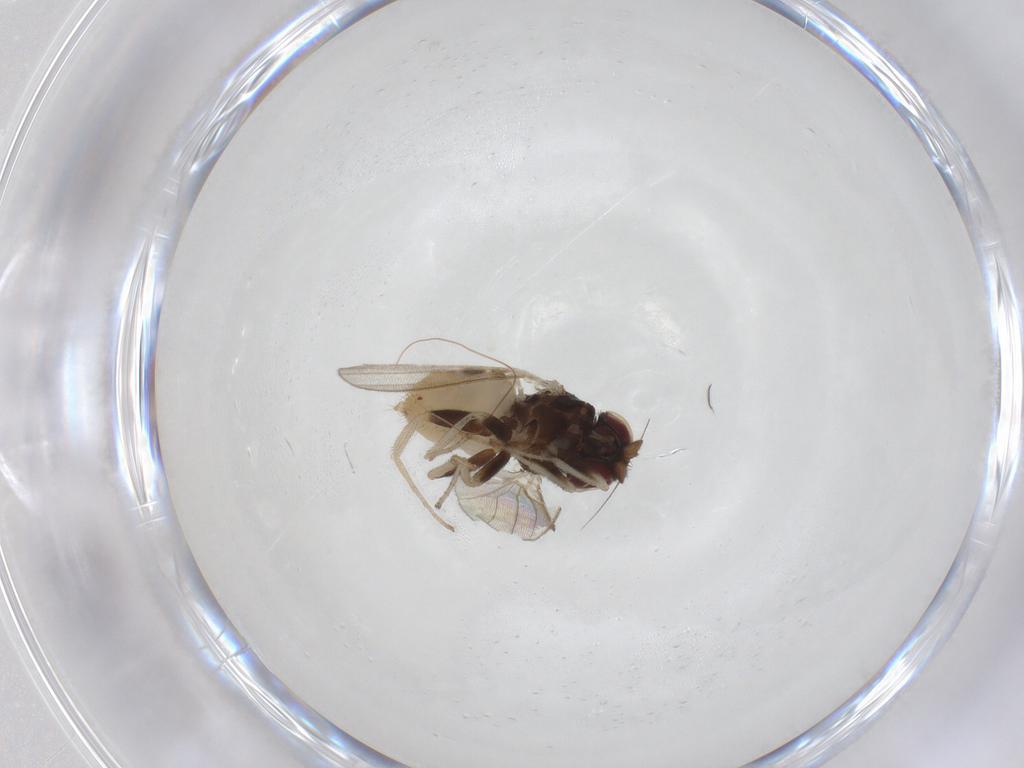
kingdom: Animalia
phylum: Arthropoda
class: Insecta
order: Diptera
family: Milichiidae
